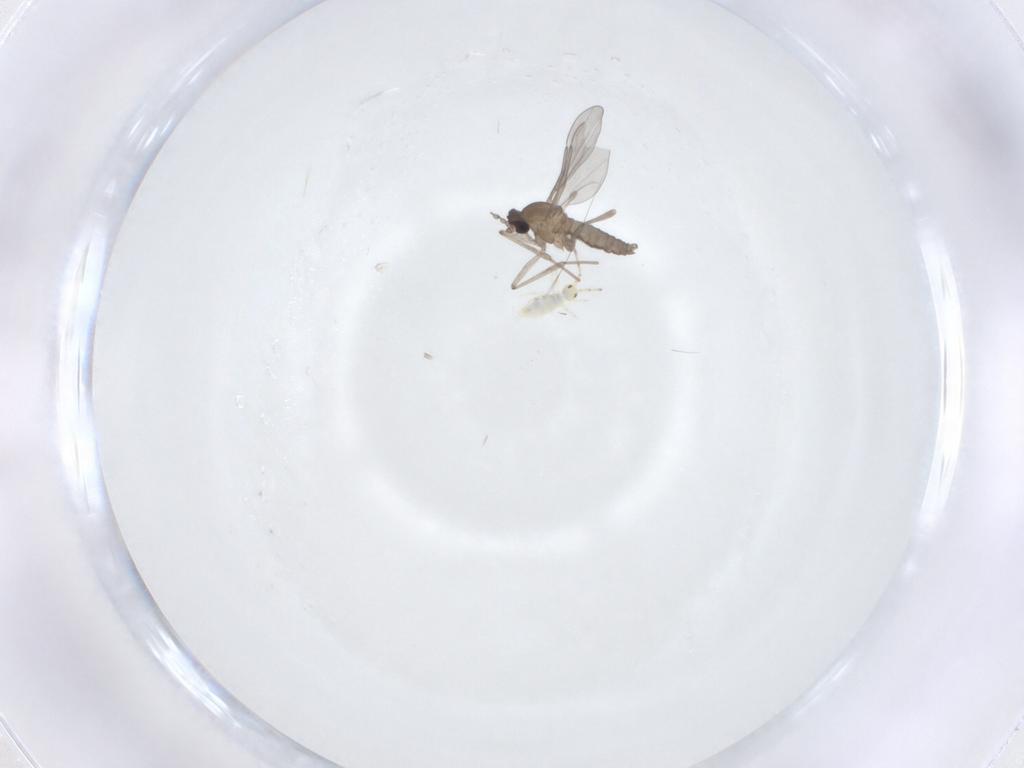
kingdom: Animalia
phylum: Arthropoda
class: Insecta
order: Diptera
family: Cecidomyiidae
